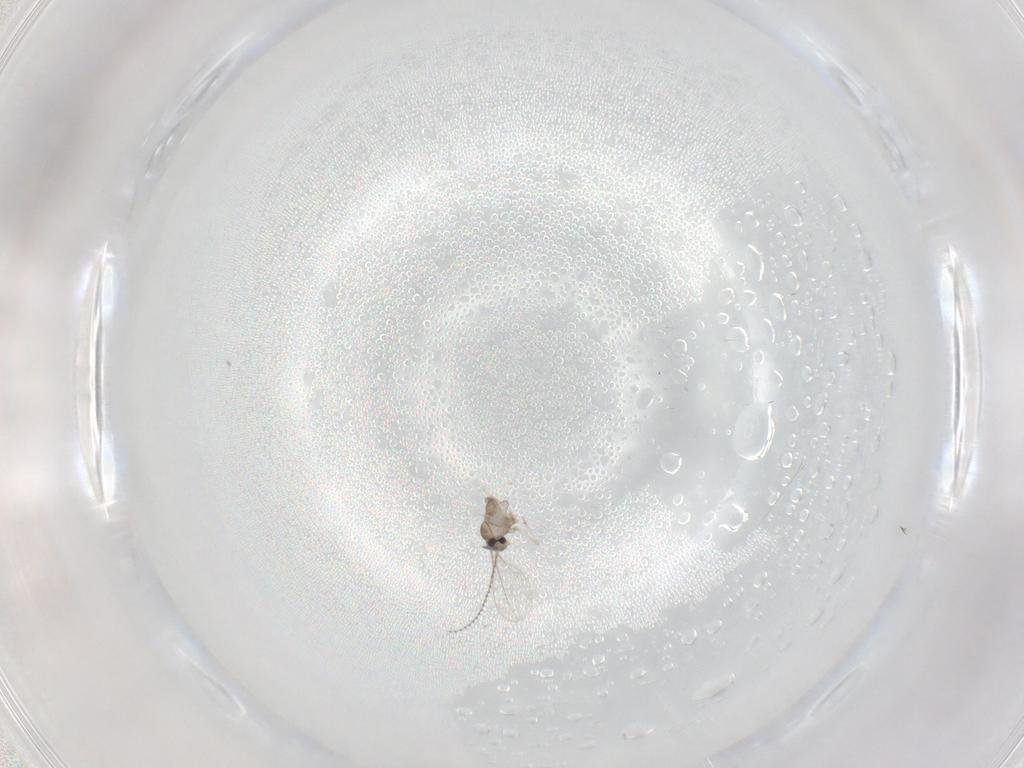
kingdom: Animalia
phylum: Arthropoda
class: Insecta
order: Diptera
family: Cecidomyiidae
